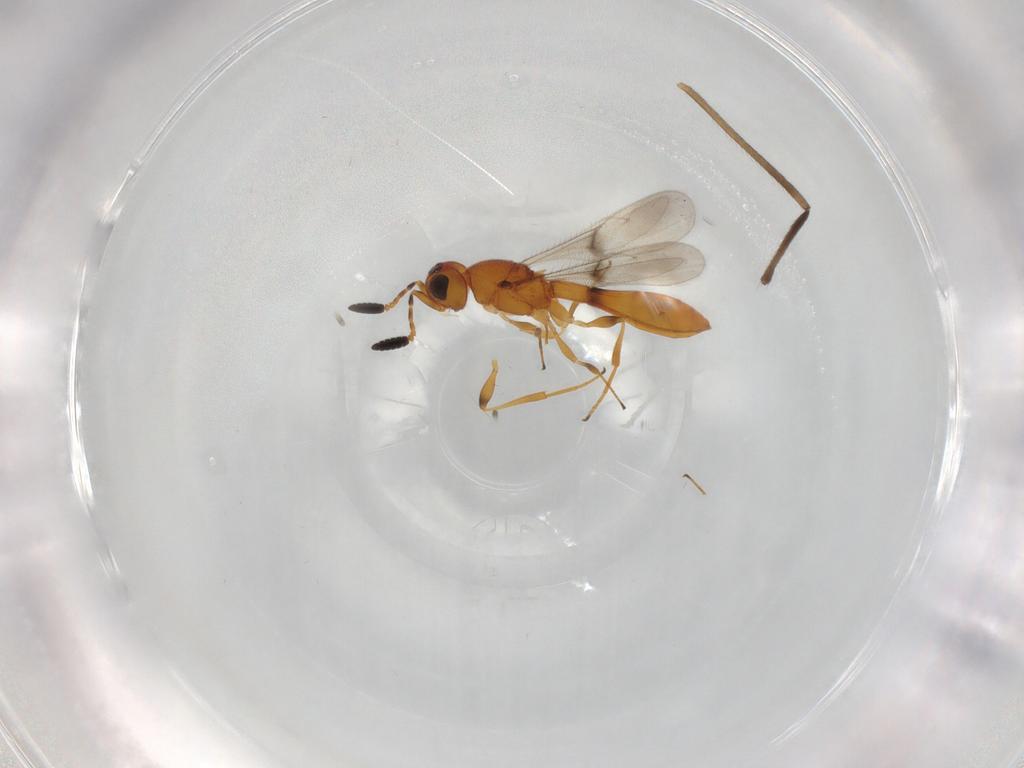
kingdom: Animalia
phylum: Arthropoda
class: Insecta
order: Hymenoptera
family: Scelionidae
